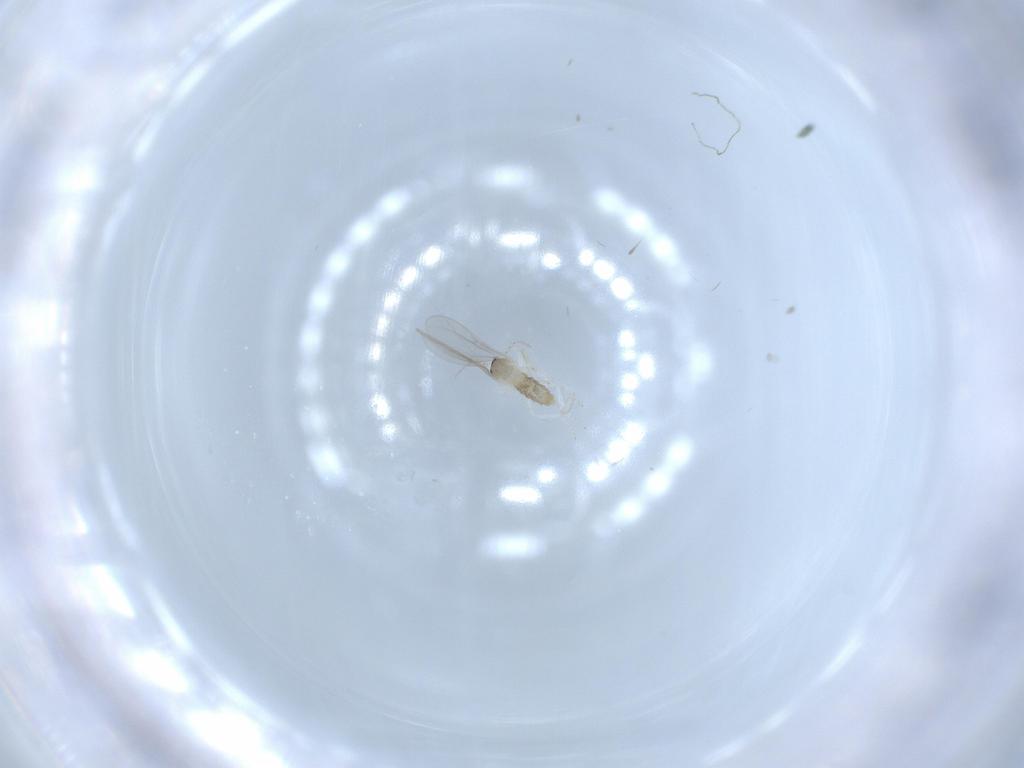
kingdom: Animalia
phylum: Arthropoda
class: Insecta
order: Diptera
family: Cecidomyiidae
